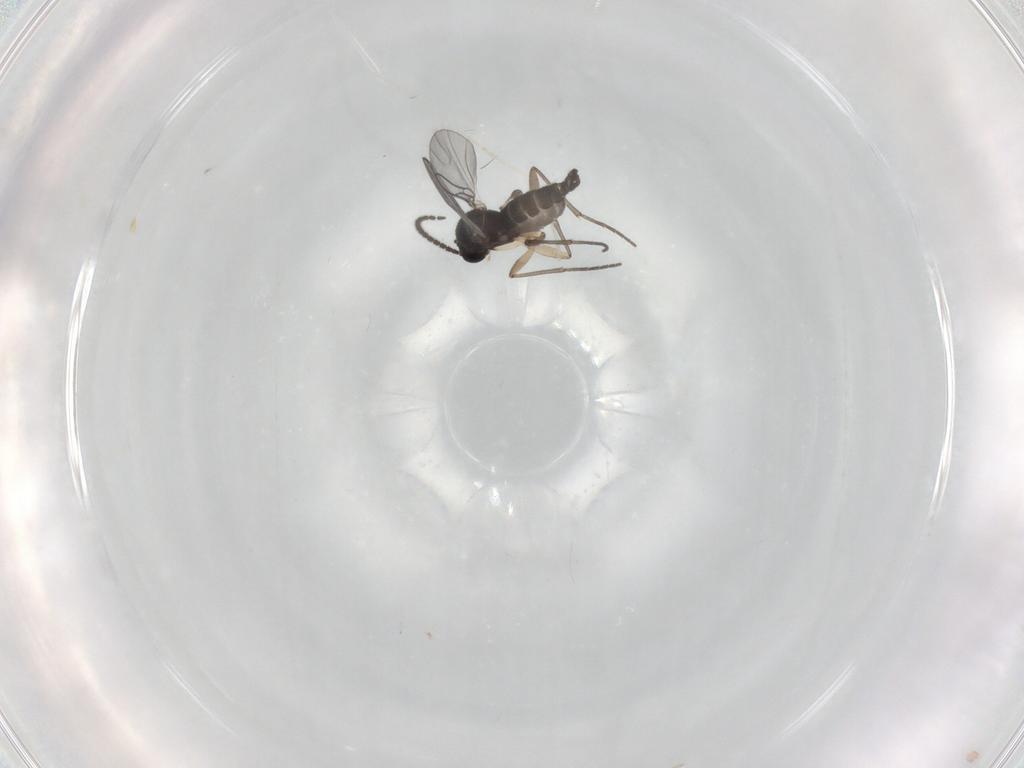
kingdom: Animalia
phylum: Arthropoda
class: Insecta
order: Diptera
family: Sciaridae
